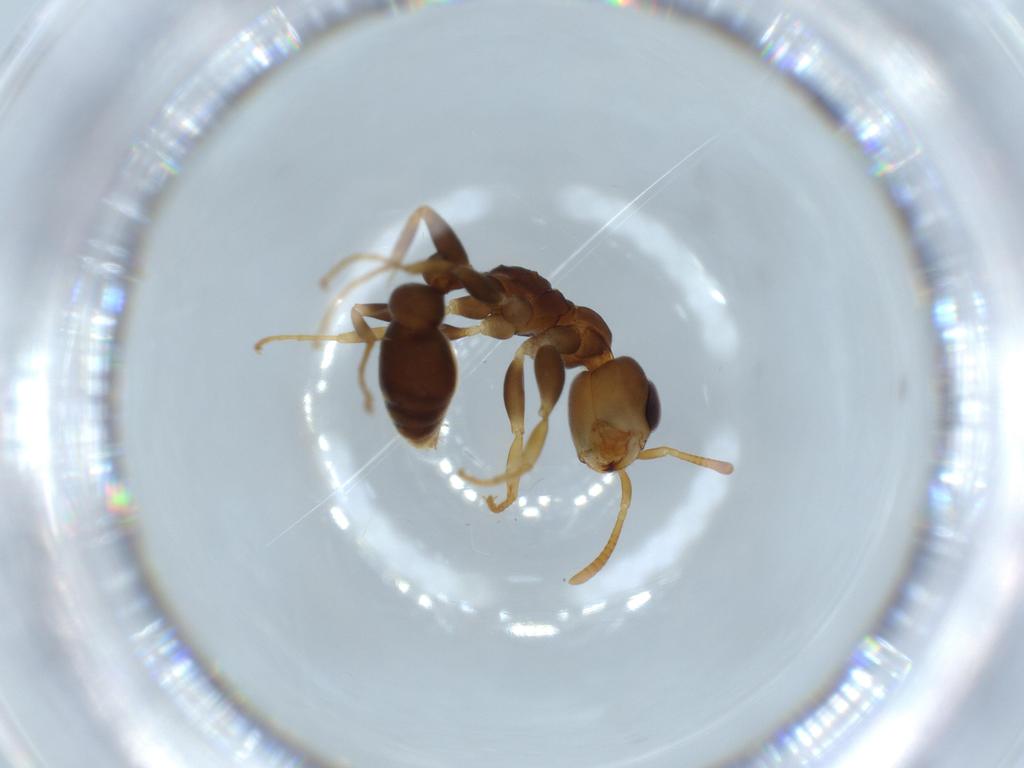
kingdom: Animalia
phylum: Arthropoda
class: Insecta
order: Hymenoptera
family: Formicidae
